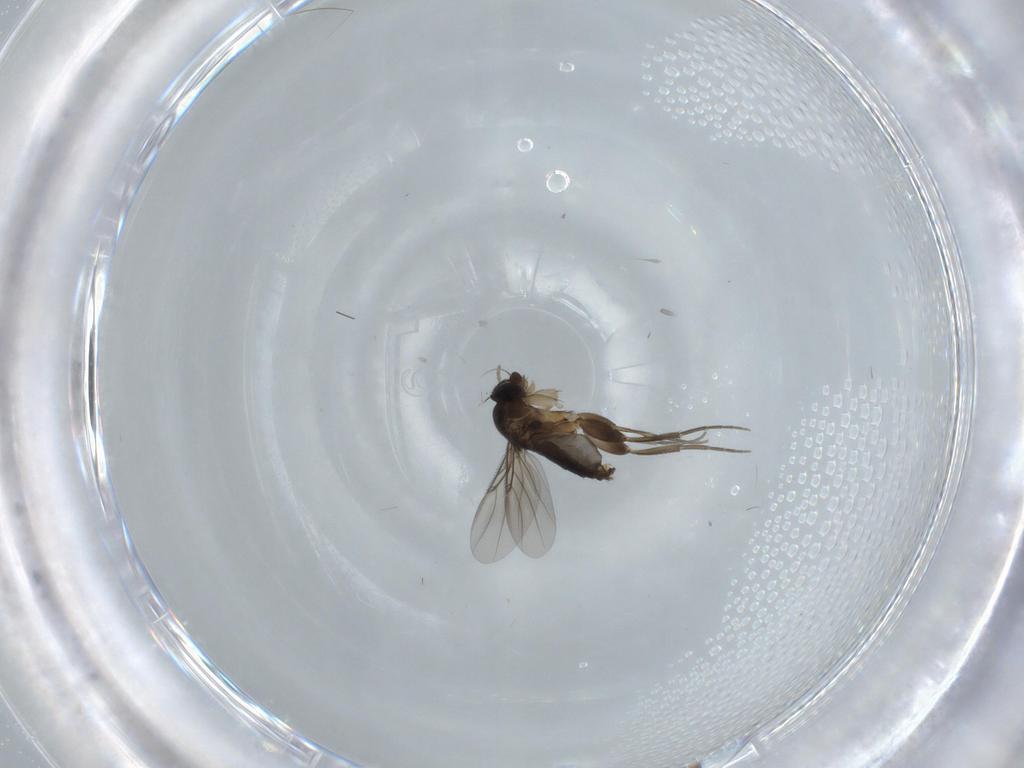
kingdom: Animalia
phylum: Arthropoda
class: Insecta
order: Diptera
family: Phoridae
